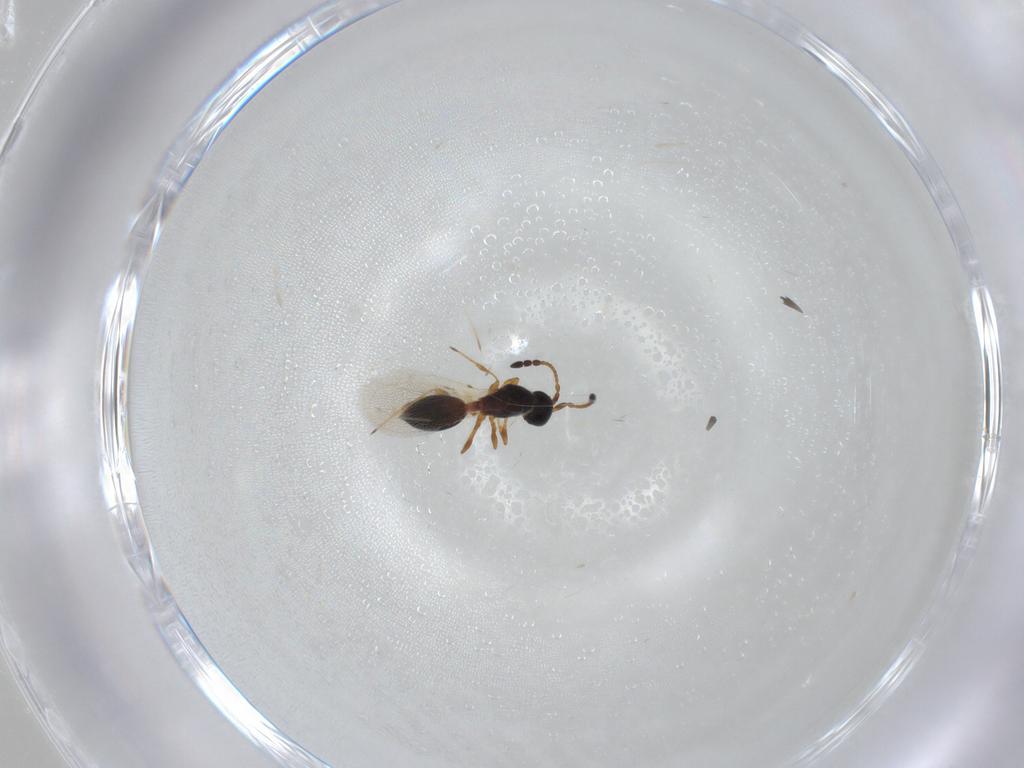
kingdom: Animalia
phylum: Arthropoda
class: Insecta
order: Hymenoptera
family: Diapriidae
